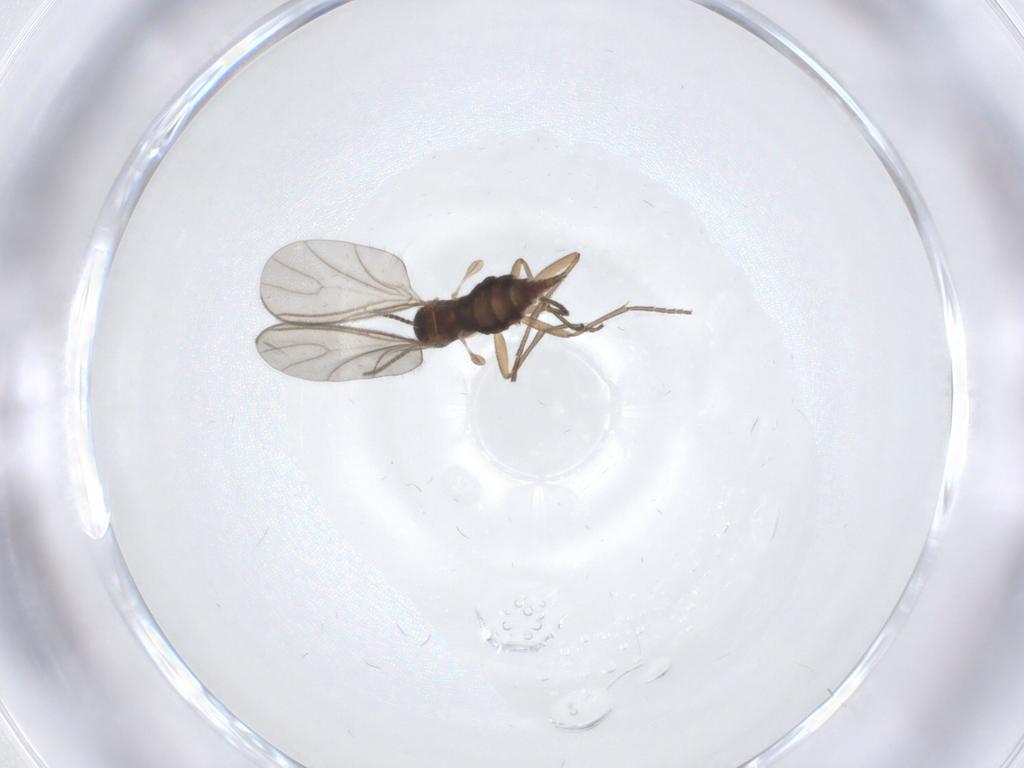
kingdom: Animalia
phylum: Arthropoda
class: Insecta
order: Diptera
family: Sciaridae
